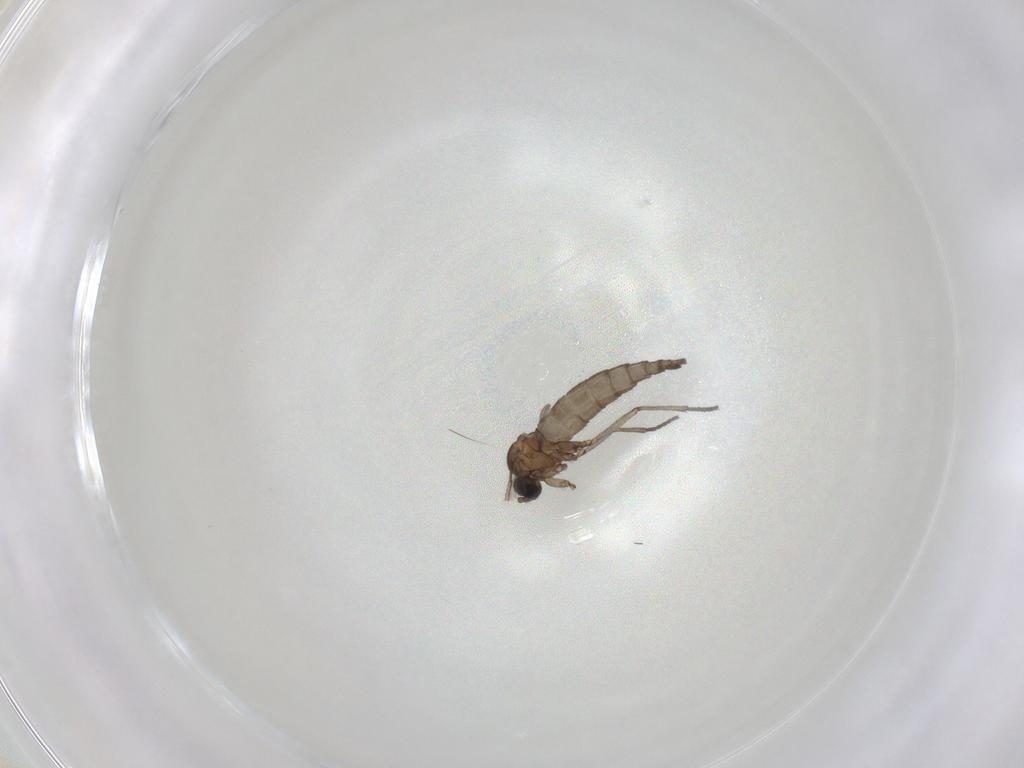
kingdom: Animalia
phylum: Arthropoda
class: Insecta
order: Diptera
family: Sciaridae
